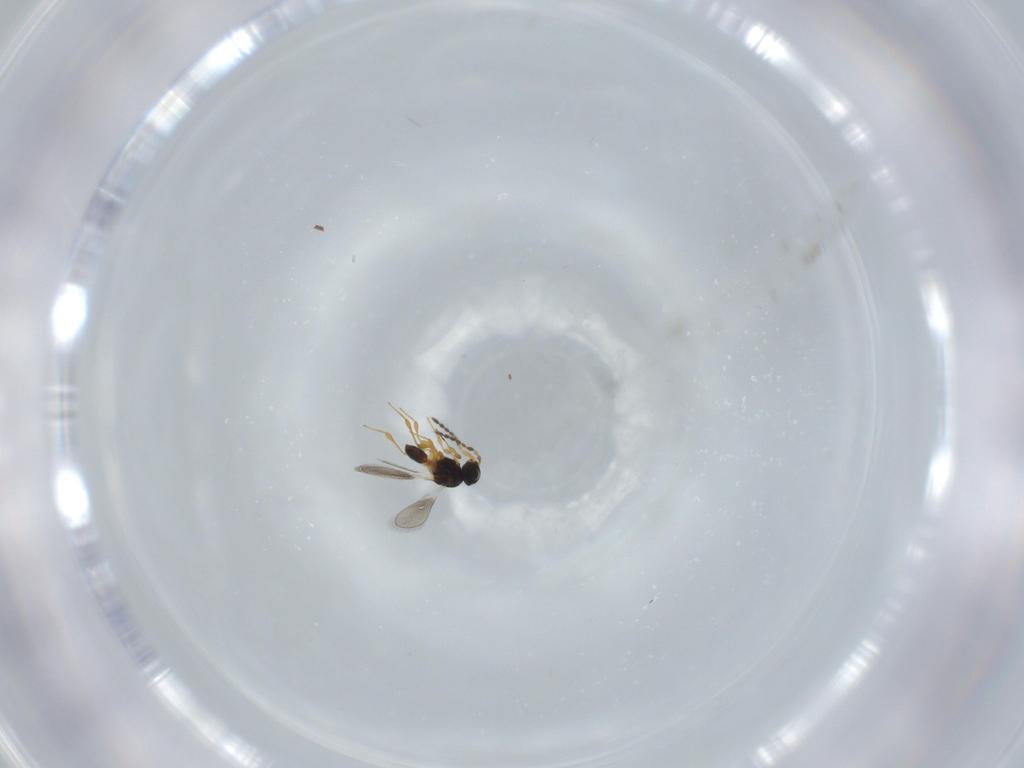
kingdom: Animalia
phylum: Arthropoda
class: Insecta
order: Hymenoptera
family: Platygastridae
